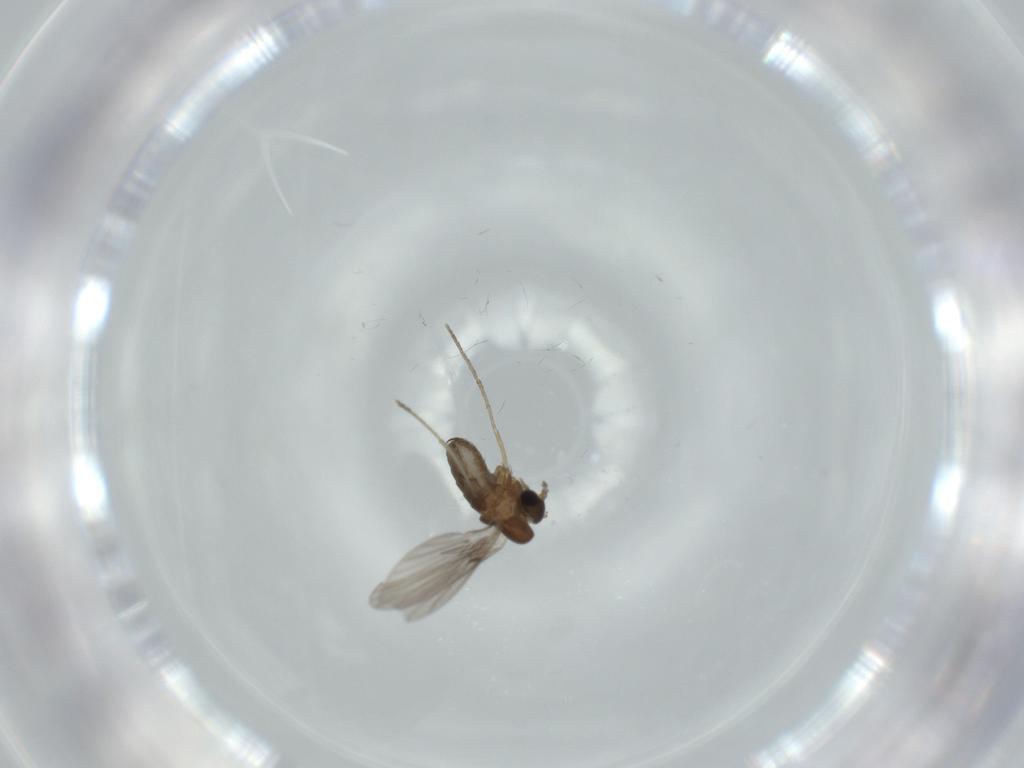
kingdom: Animalia
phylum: Arthropoda
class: Insecta
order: Diptera
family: Psychodidae
